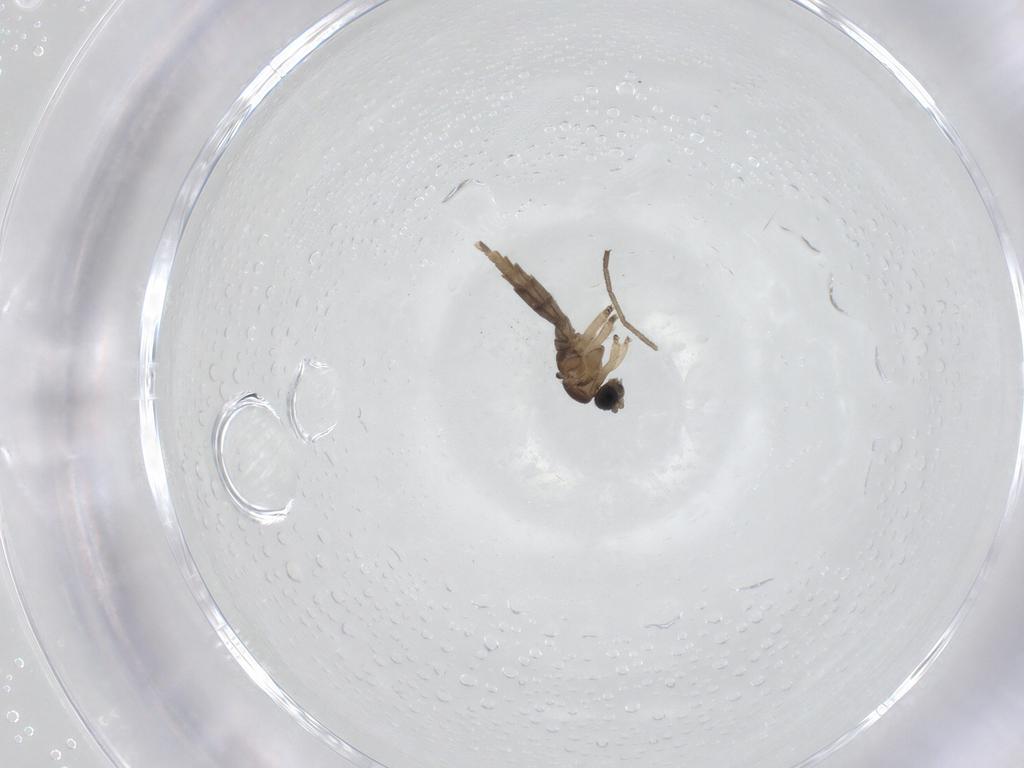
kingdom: Animalia
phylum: Arthropoda
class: Insecta
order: Diptera
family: Sciaridae
